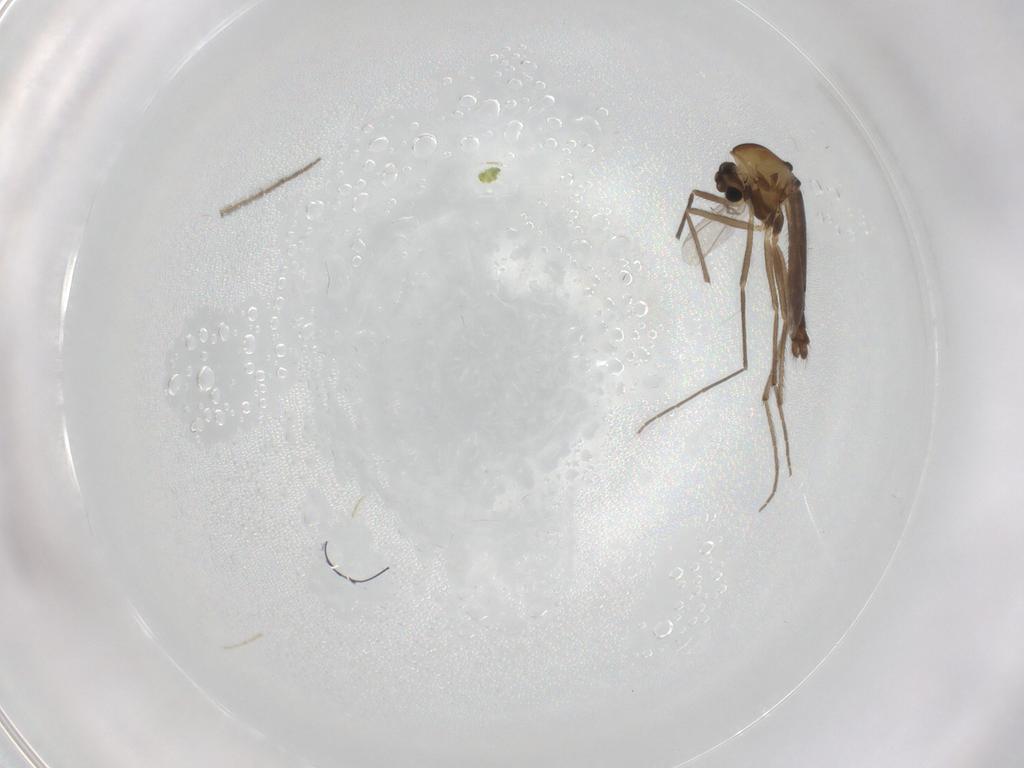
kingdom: Animalia
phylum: Arthropoda
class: Insecta
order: Diptera
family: Chironomidae
